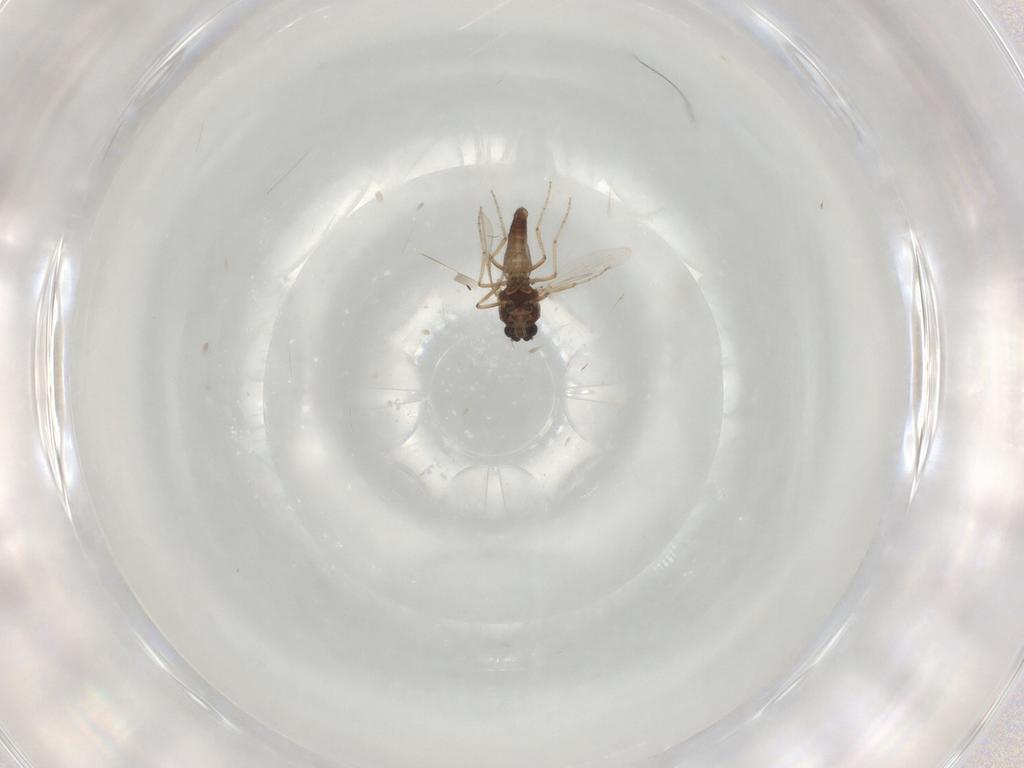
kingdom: Animalia
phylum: Arthropoda
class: Insecta
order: Diptera
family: Ceratopogonidae
